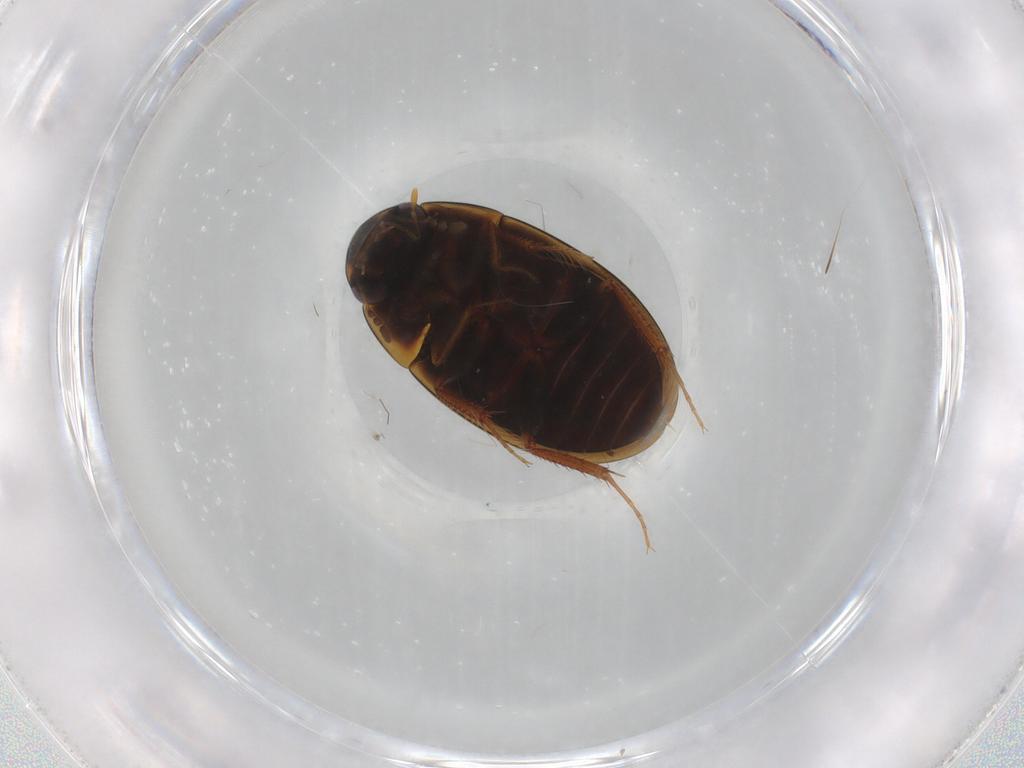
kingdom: Animalia
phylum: Arthropoda
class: Insecta
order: Coleoptera
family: Hydrophilidae
